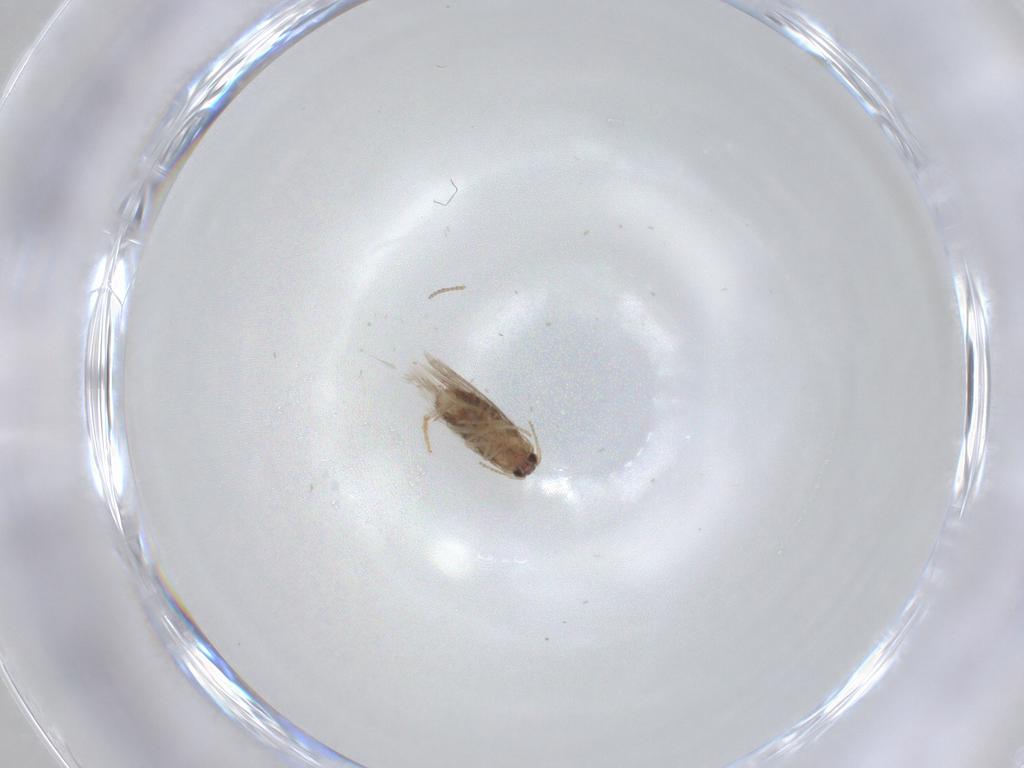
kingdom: Animalia
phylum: Arthropoda
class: Insecta
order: Lepidoptera
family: Nepticulidae
